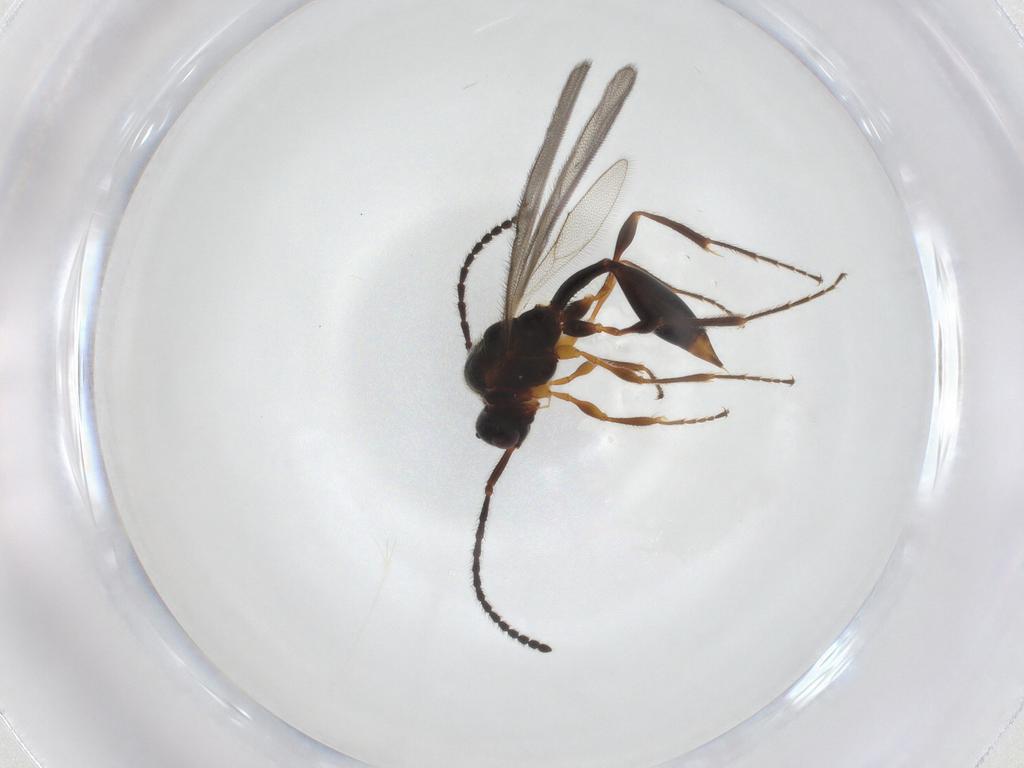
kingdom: Animalia
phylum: Arthropoda
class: Insecta
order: Hymenoptera
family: Diapriidae
